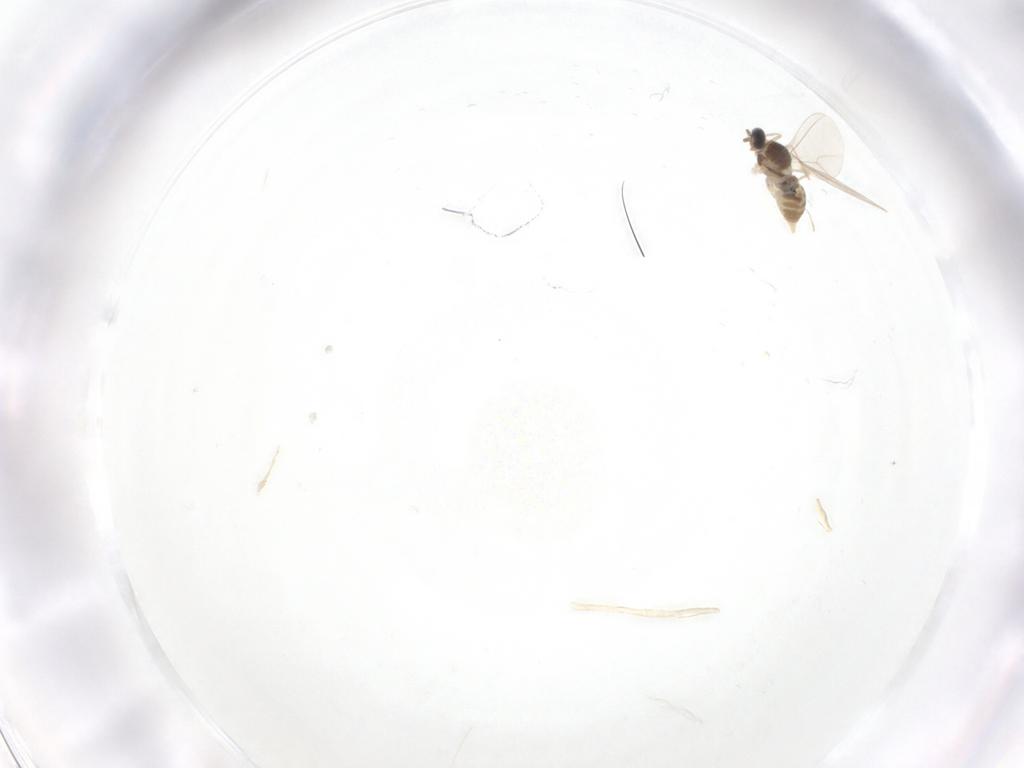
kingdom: Animalia
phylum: Arthropoda
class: Insecta
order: Diptera
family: Cecidomyiidae
